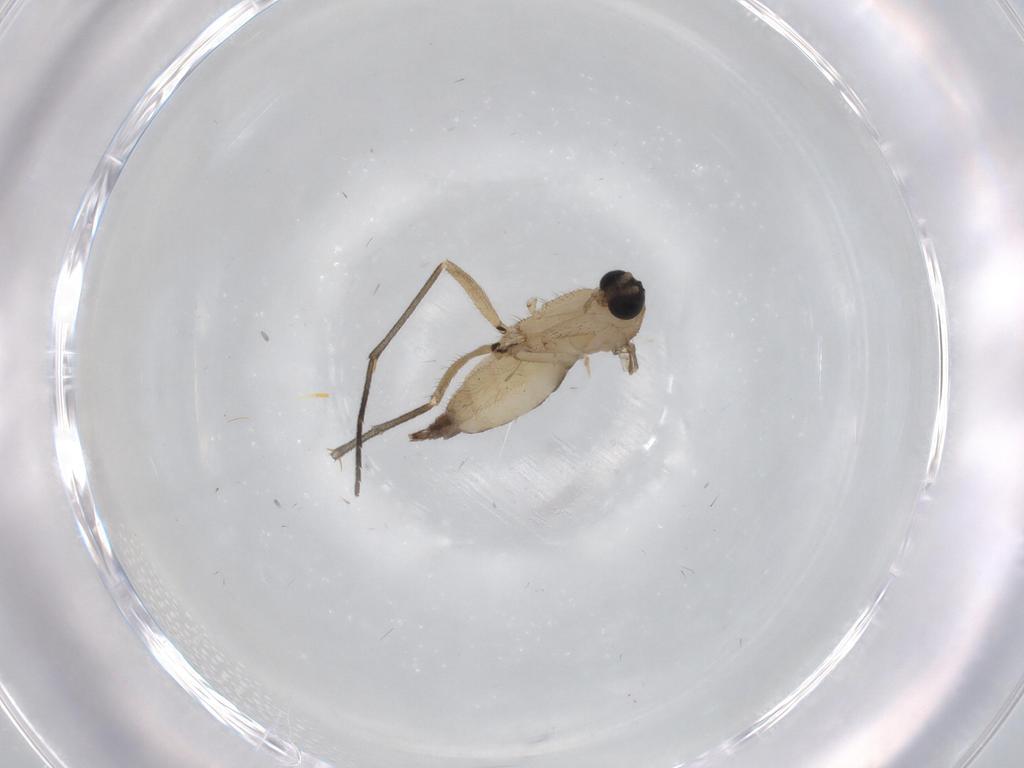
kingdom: Animalia
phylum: Arthropoda
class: Insecta
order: Diptera
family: Sciaridae
